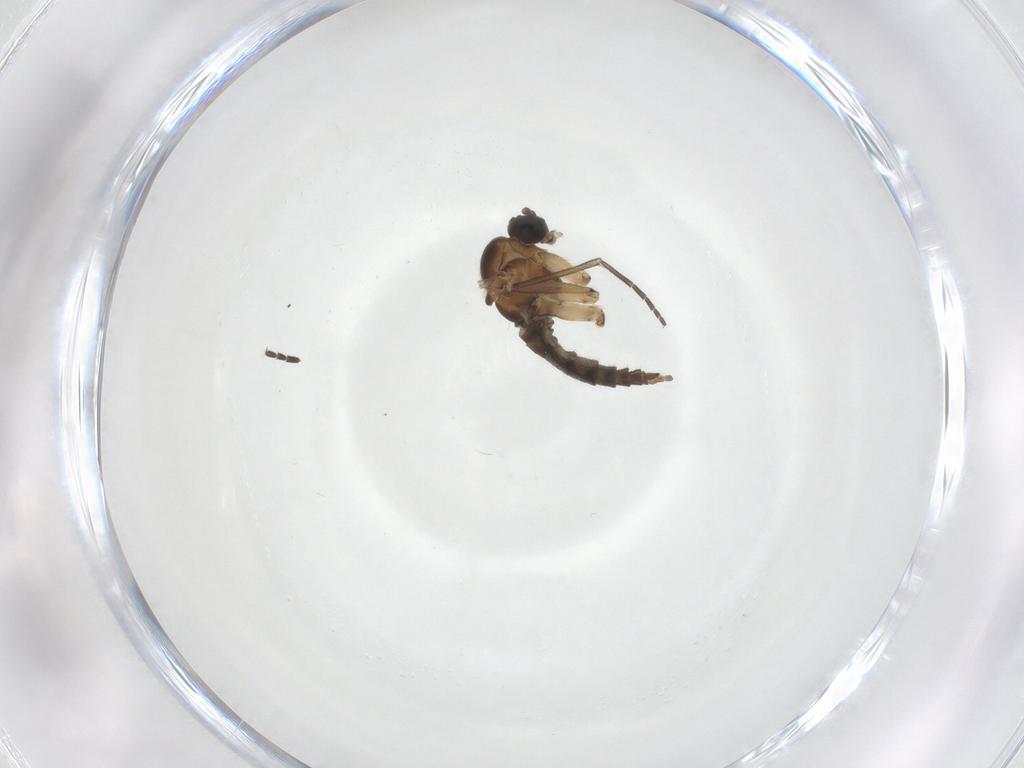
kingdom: Animalia
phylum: Arthropoda
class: Insecta
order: Diptera
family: Sciaridae
